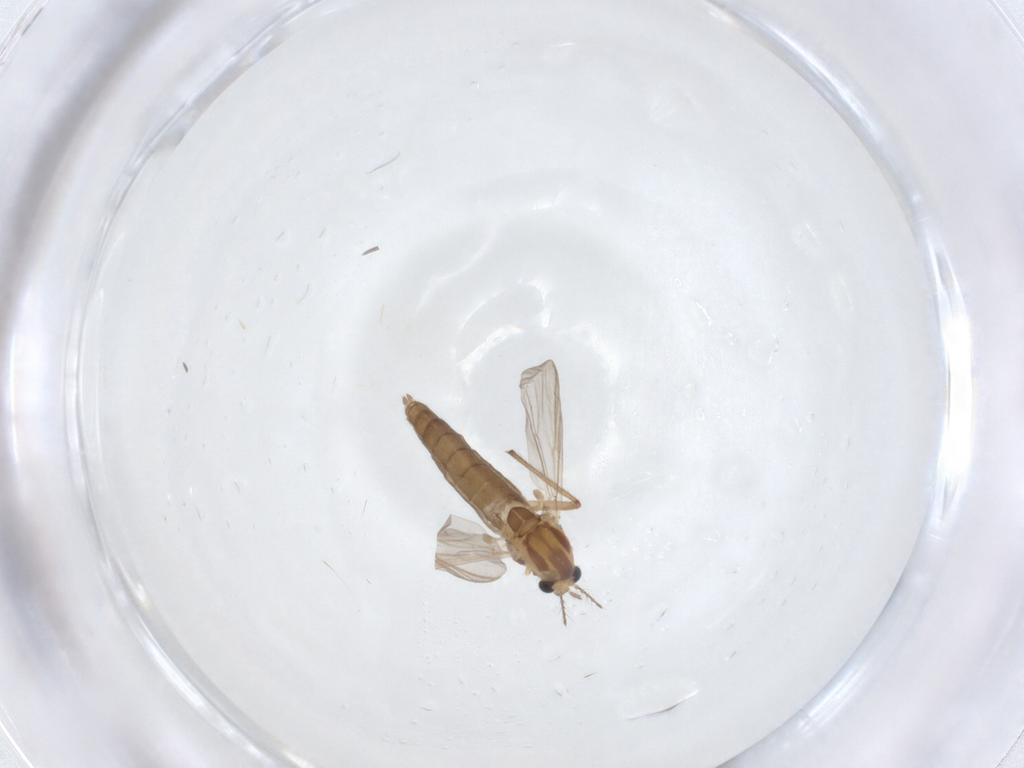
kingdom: Animalia
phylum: Arthropoda
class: Insecta
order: Diptera
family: Chironomidae
